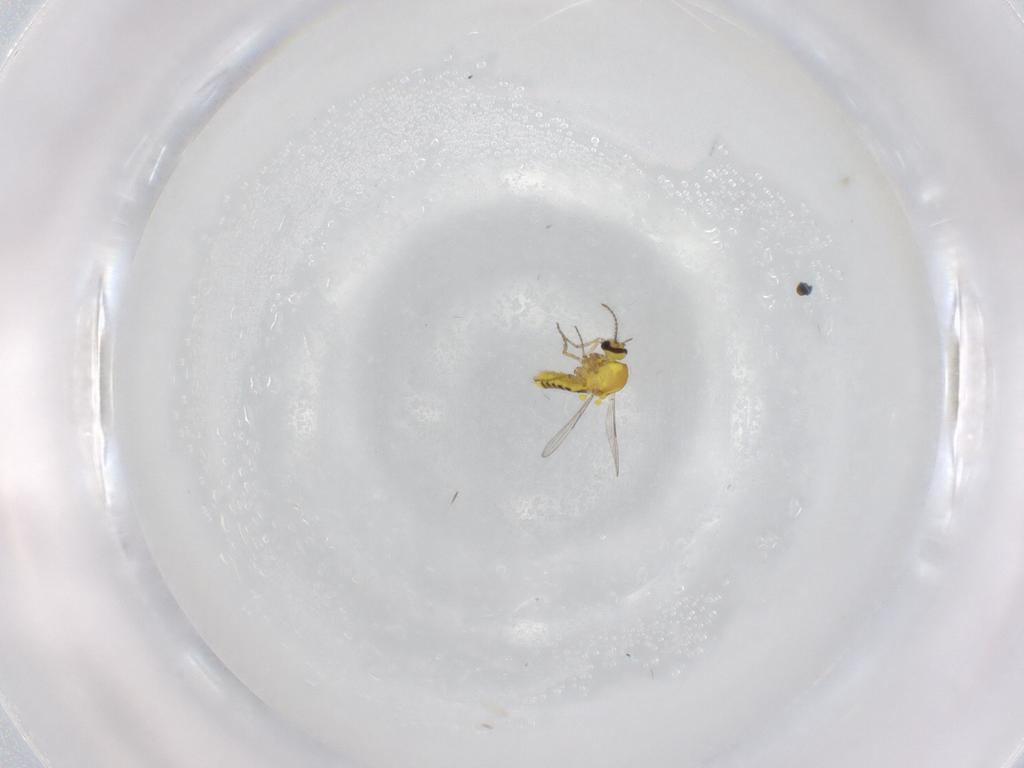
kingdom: Animalia
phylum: Arthropoda
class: Insecta
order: Diptera
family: Ceratopogonidae
